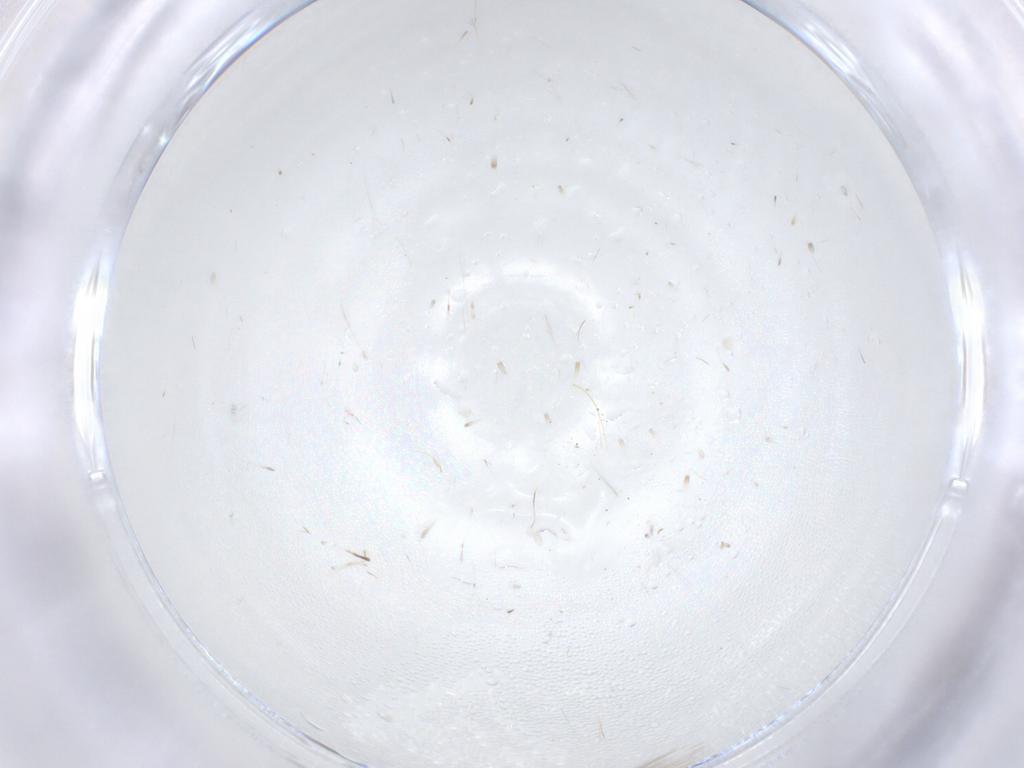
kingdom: Animalia
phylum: Arthropoda
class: Insecta
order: Lepidoptera
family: Gelechiidae
